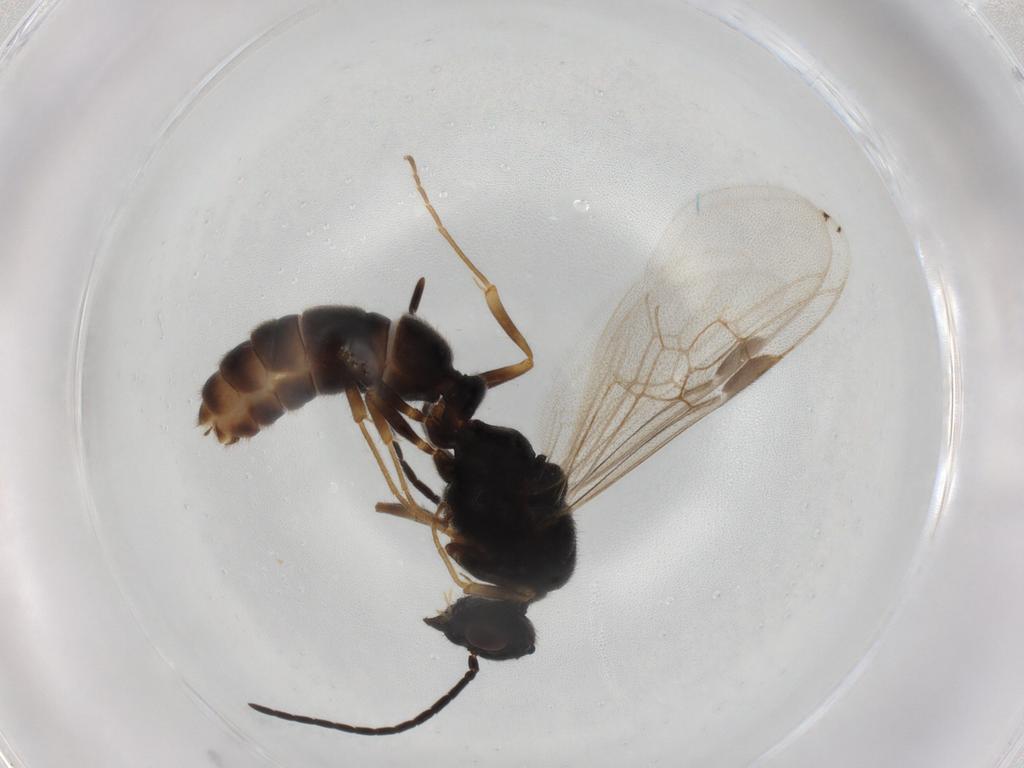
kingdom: Animalia
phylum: Arthropoda
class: Insecta
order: Hymenoptera
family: Formicidae
